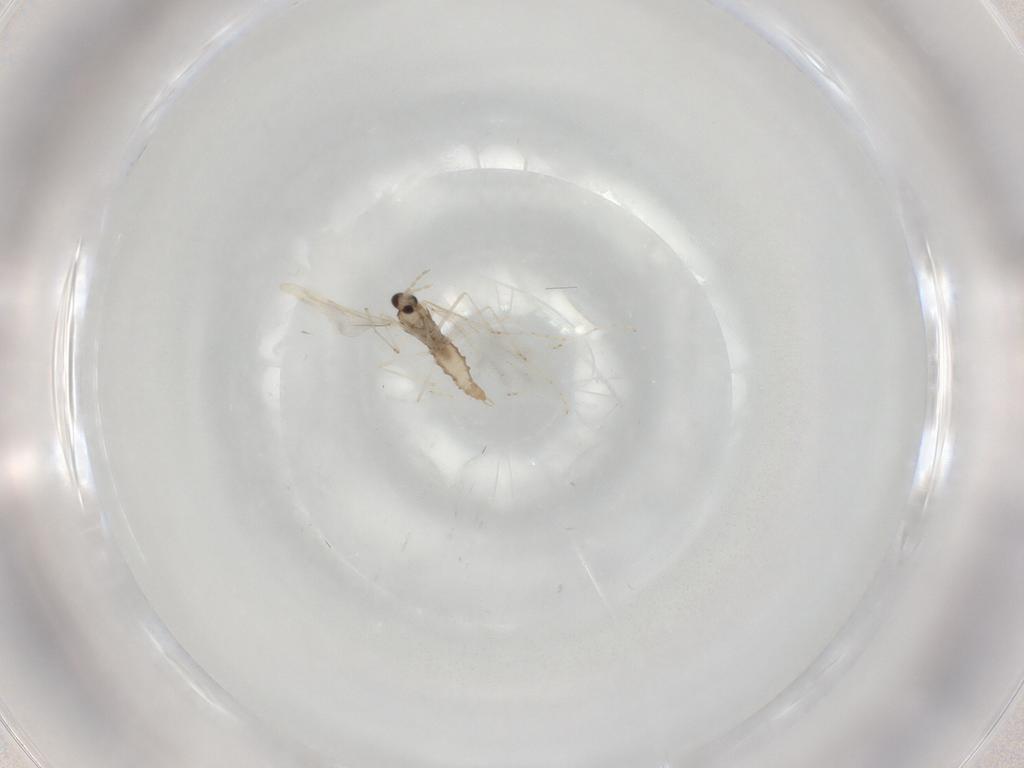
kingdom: Animalia
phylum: Arthropoda
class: Insecta
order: Diptera
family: Cecidomyiidae
